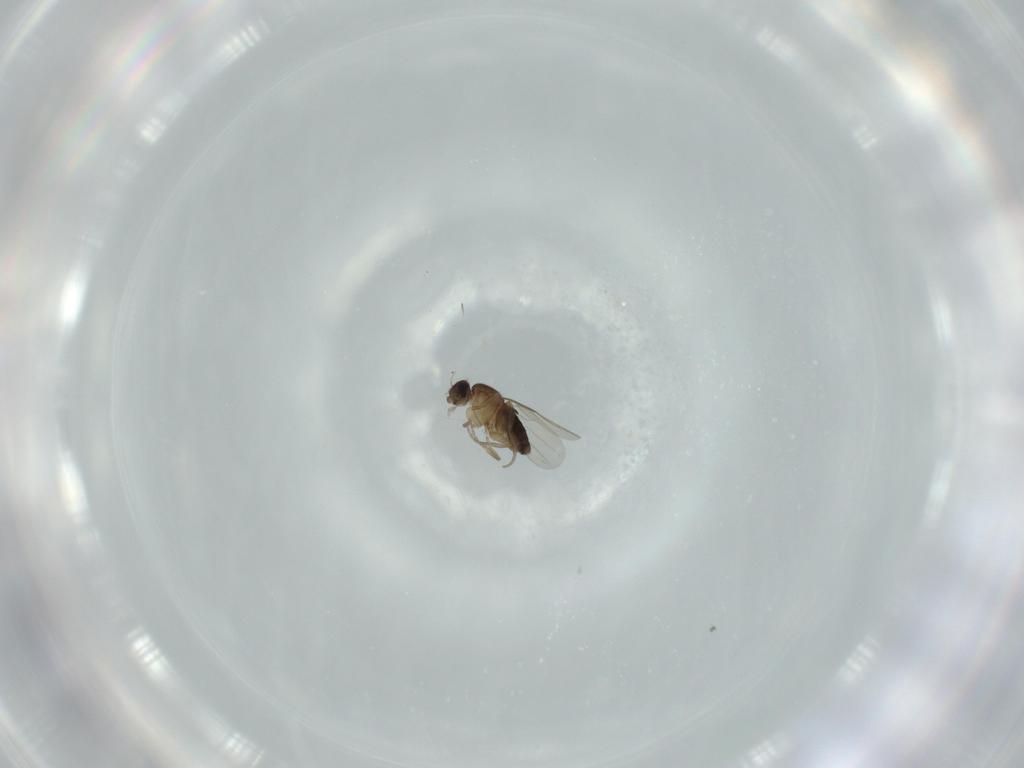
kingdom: Animalia
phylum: Arthropoda
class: Insecta
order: Diptera
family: Phoridae
